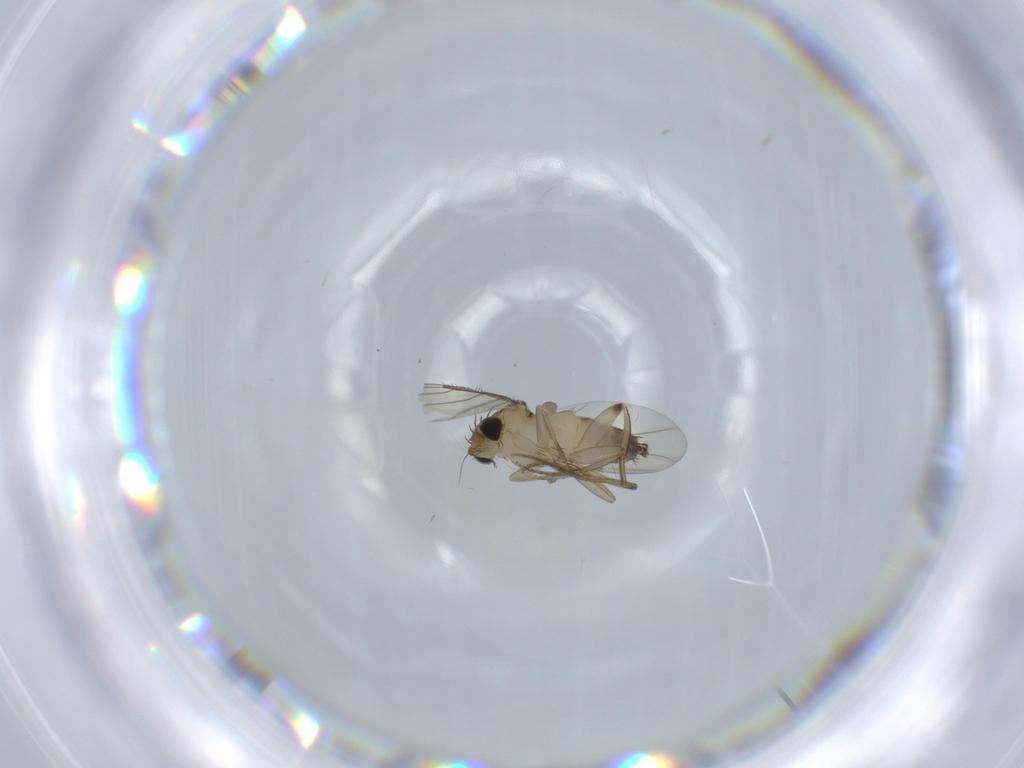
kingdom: Animalia
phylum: Arthropoda
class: Insecta
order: Diptera
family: Phoridae
